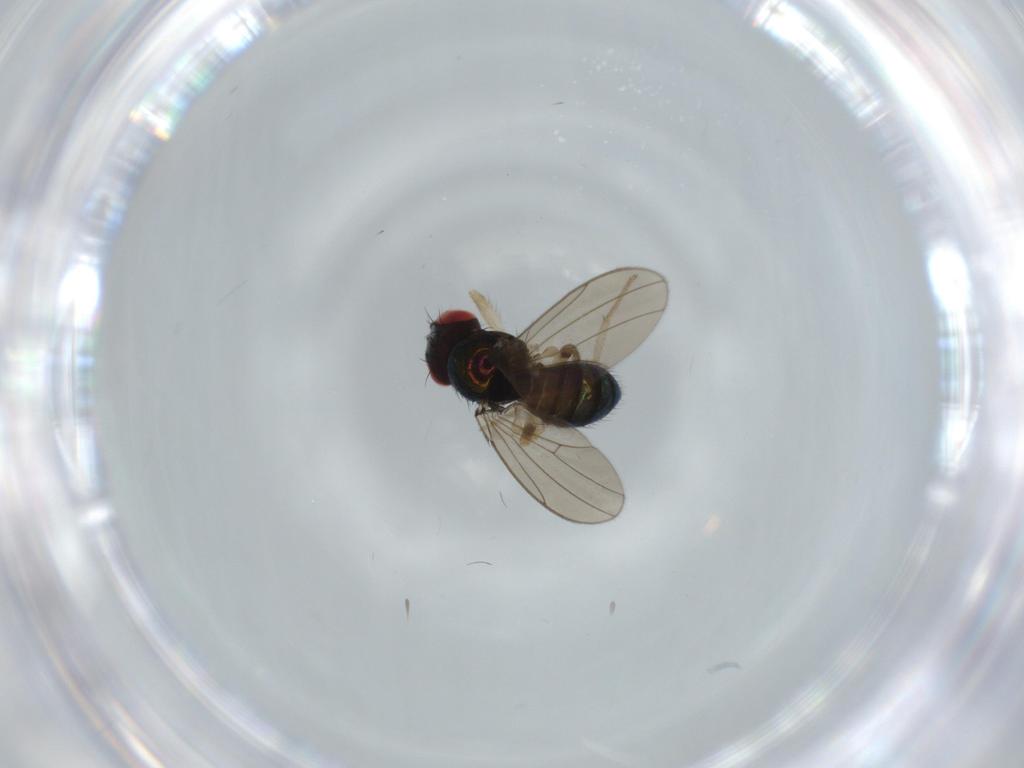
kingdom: Animalia
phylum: Arthropoda
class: Insecta
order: Diptera
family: Drosophilidae
